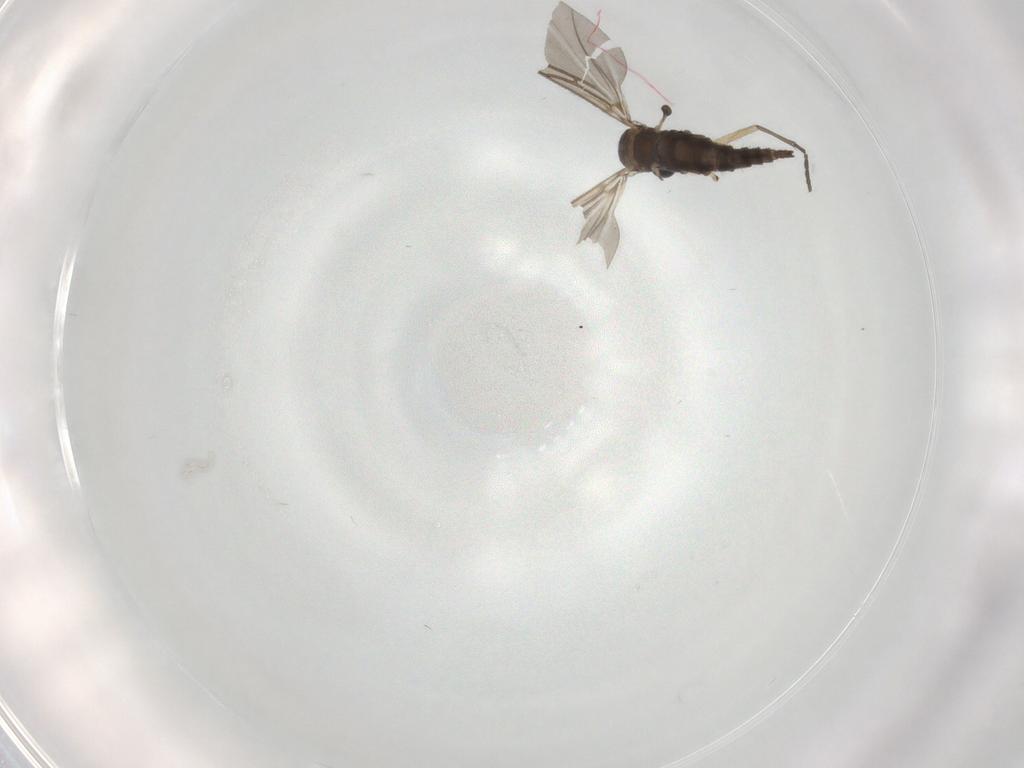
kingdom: Animalia
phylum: Arthropoda
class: Insecta
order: Diptera
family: Sciaridae
